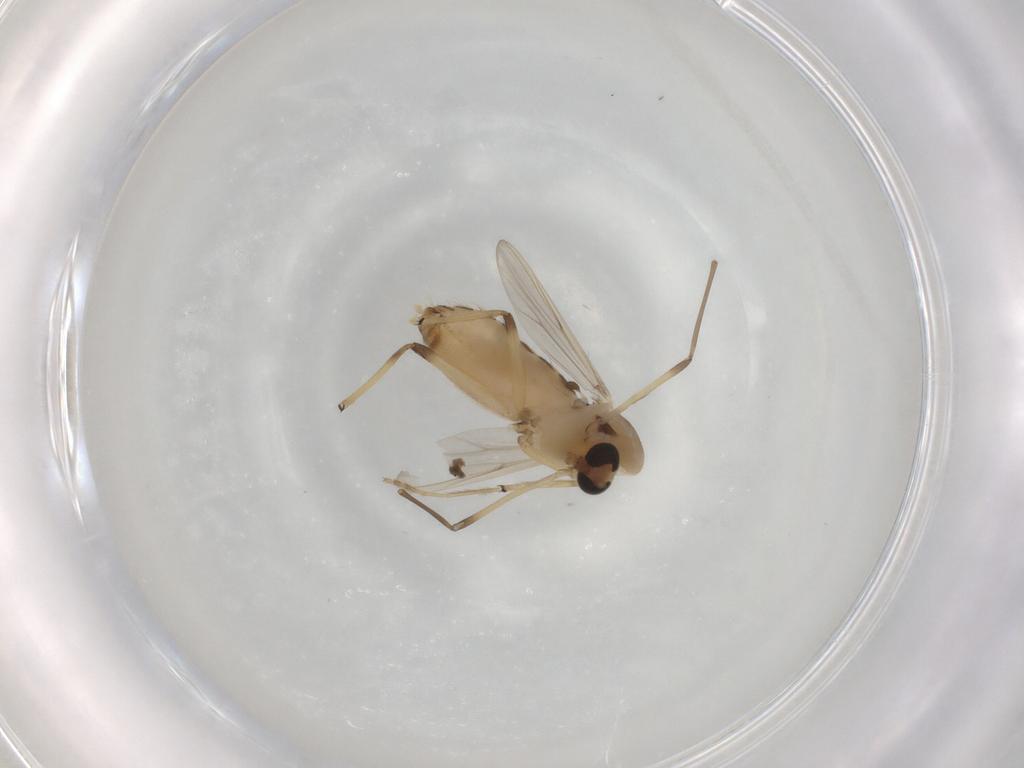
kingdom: Animalia
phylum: Arthropoda
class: Insecta
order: Diptera
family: Chironomidae
